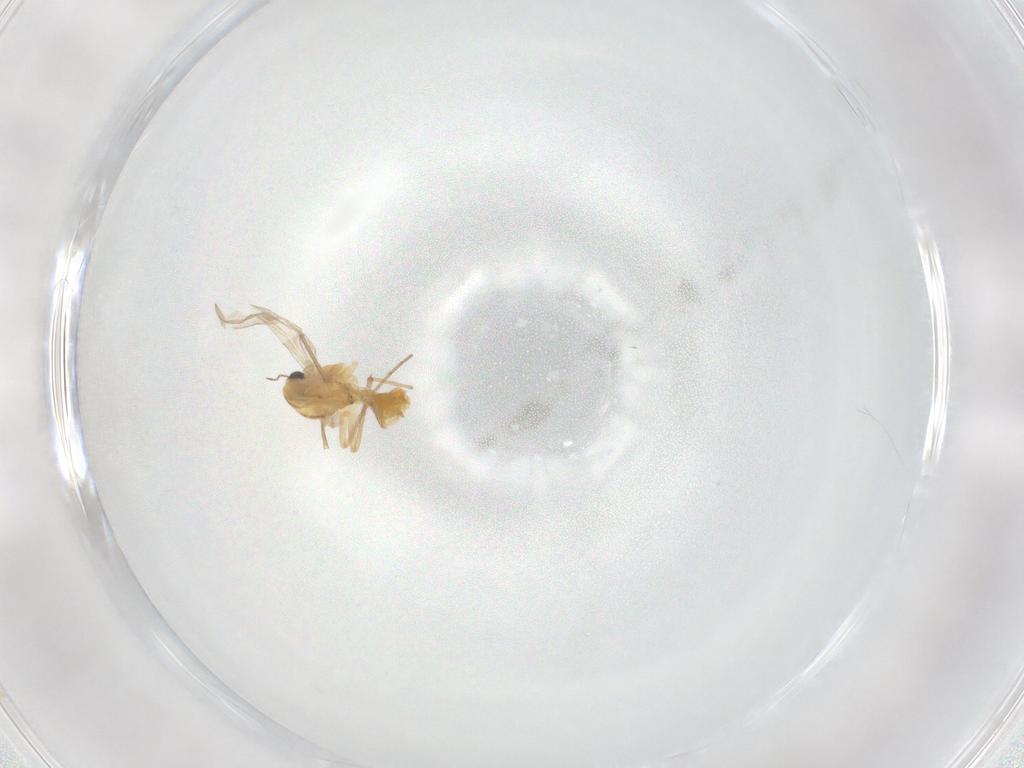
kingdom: Animalia
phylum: Arthropoda
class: Insecta
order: Diptera
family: Chironomidae
